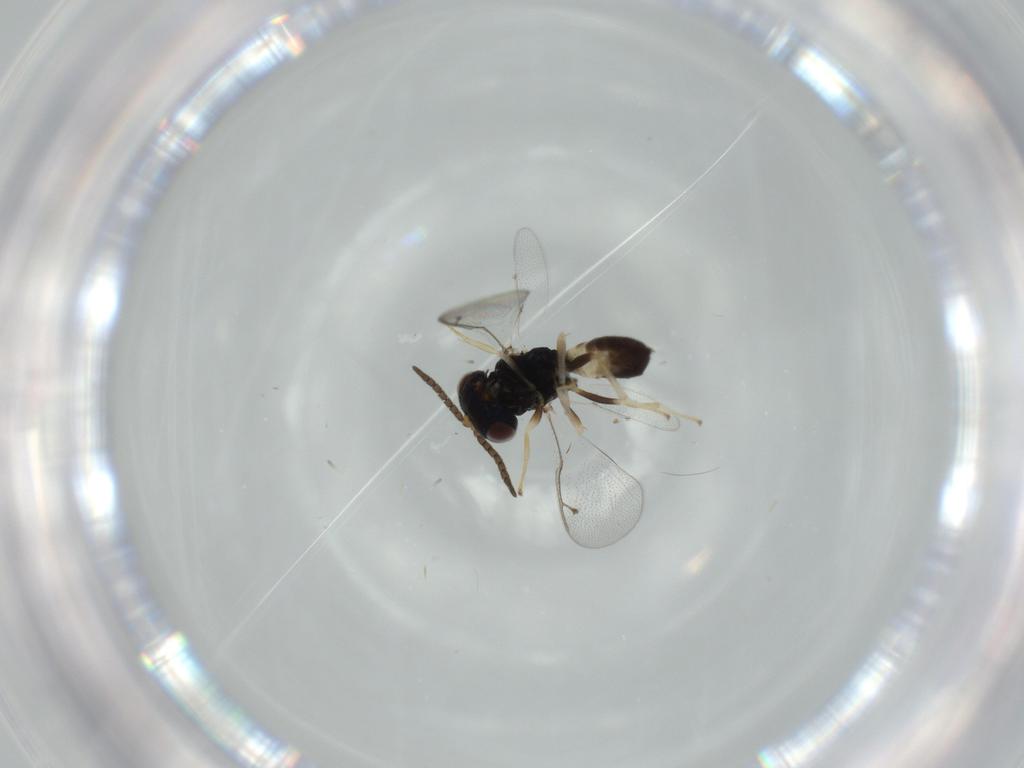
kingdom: Animalia
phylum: Arthropoda
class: Insecta
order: Hymenoptera
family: Pteromalidae
